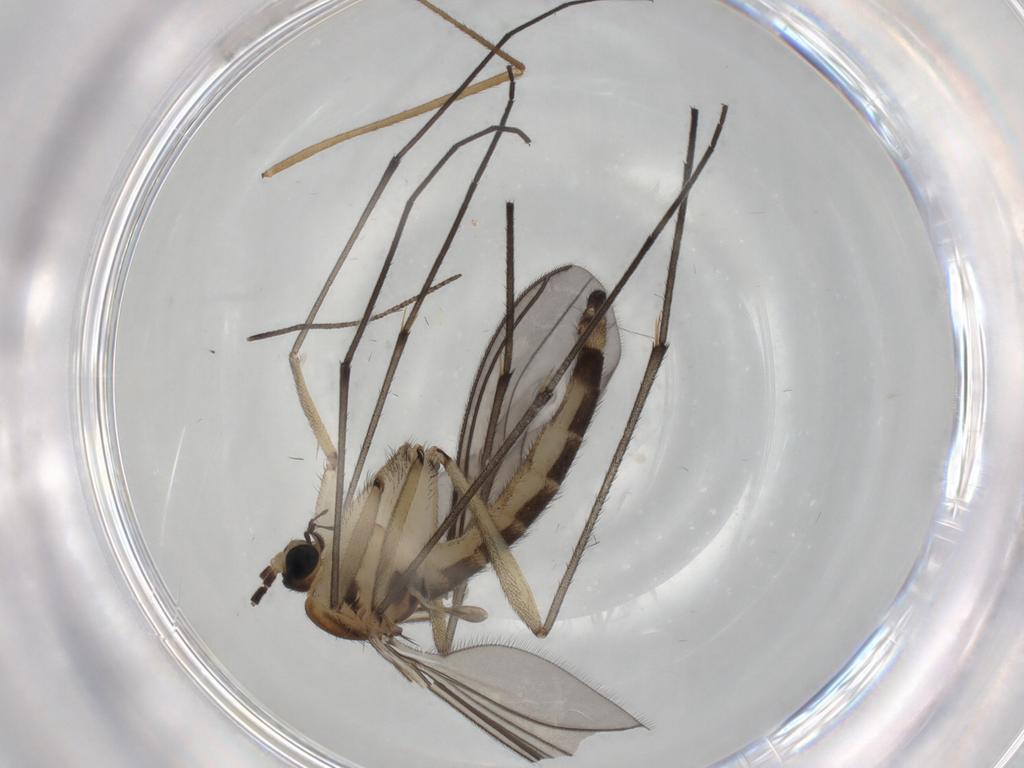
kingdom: Animalia
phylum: Arthropoda
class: Insecta
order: Diptera
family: Sciaridae
